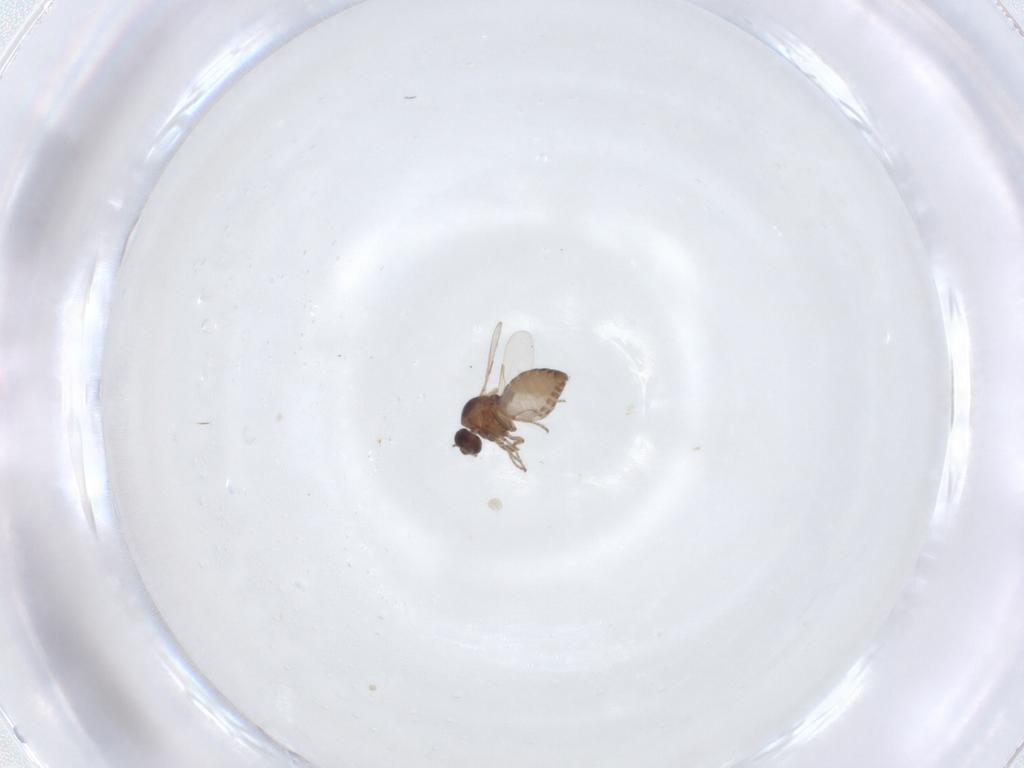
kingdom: Animalia
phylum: Arthropoda
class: Insecta
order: Diptera
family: Ceratopogonidae
